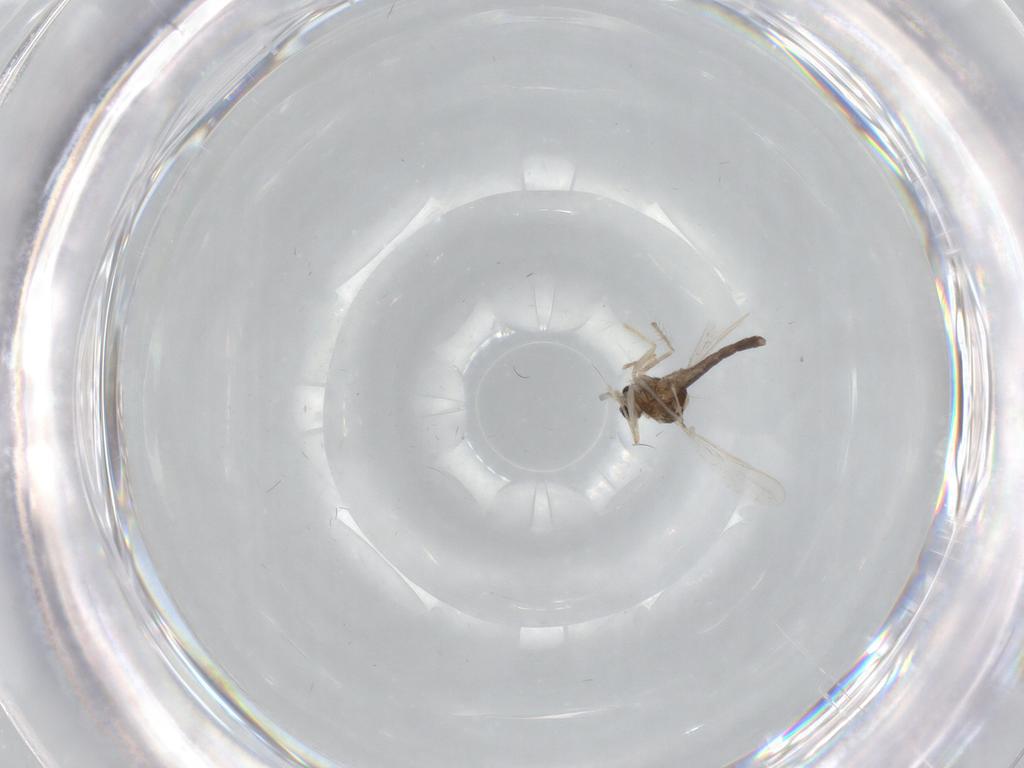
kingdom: Animalia
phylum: Arthropoda
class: Insecta
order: Diptera
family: Chironomidae
